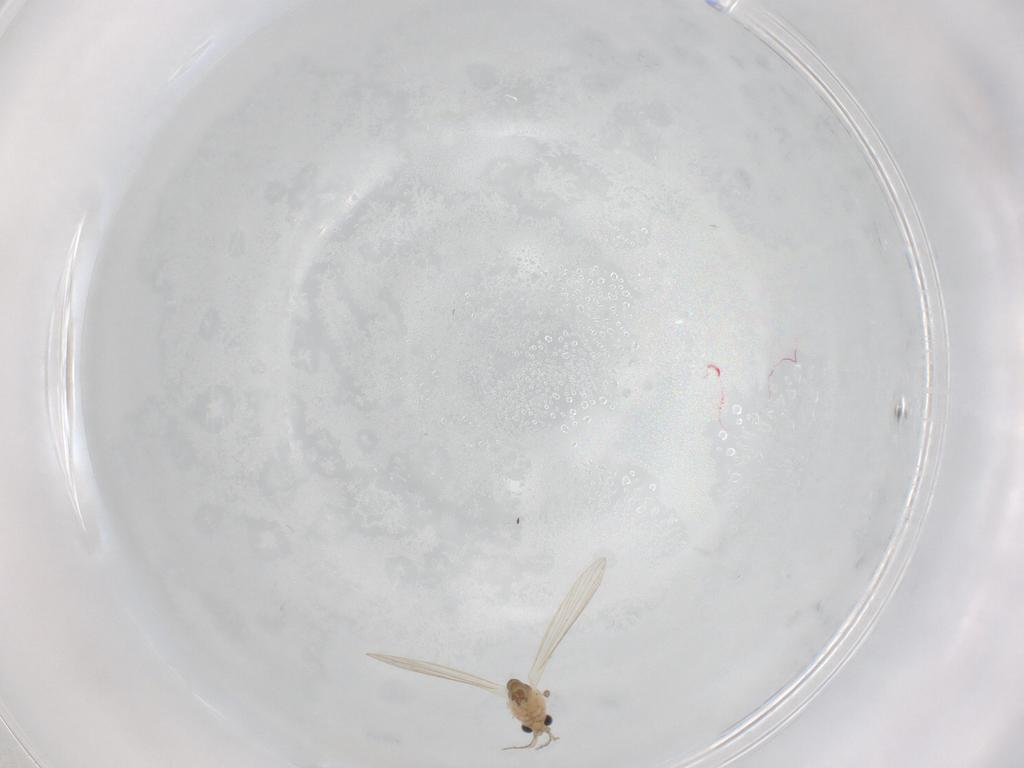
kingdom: Animalia
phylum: Arthropoda
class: Insecta
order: Diptera
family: Psychodidae
